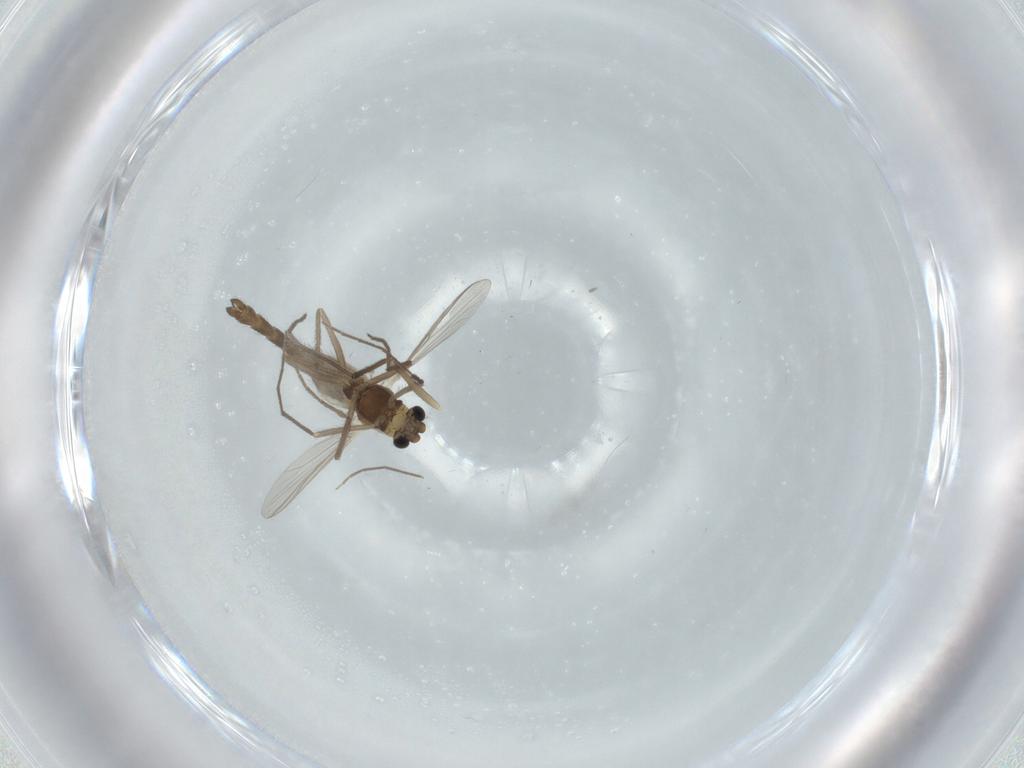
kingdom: Animalia
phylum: Arthropoda
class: Insecta
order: Diptera
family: Chironomidae
